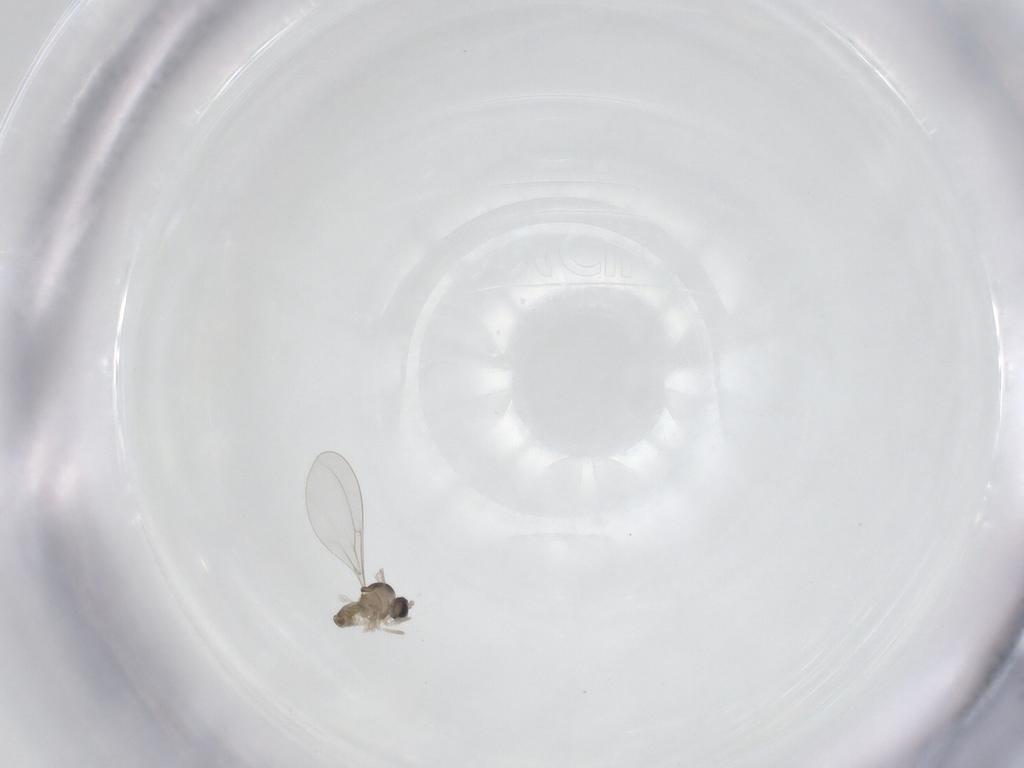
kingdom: Animalia
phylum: Arthropoda
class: Insecta
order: Diptera
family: Cecidomyiidae
